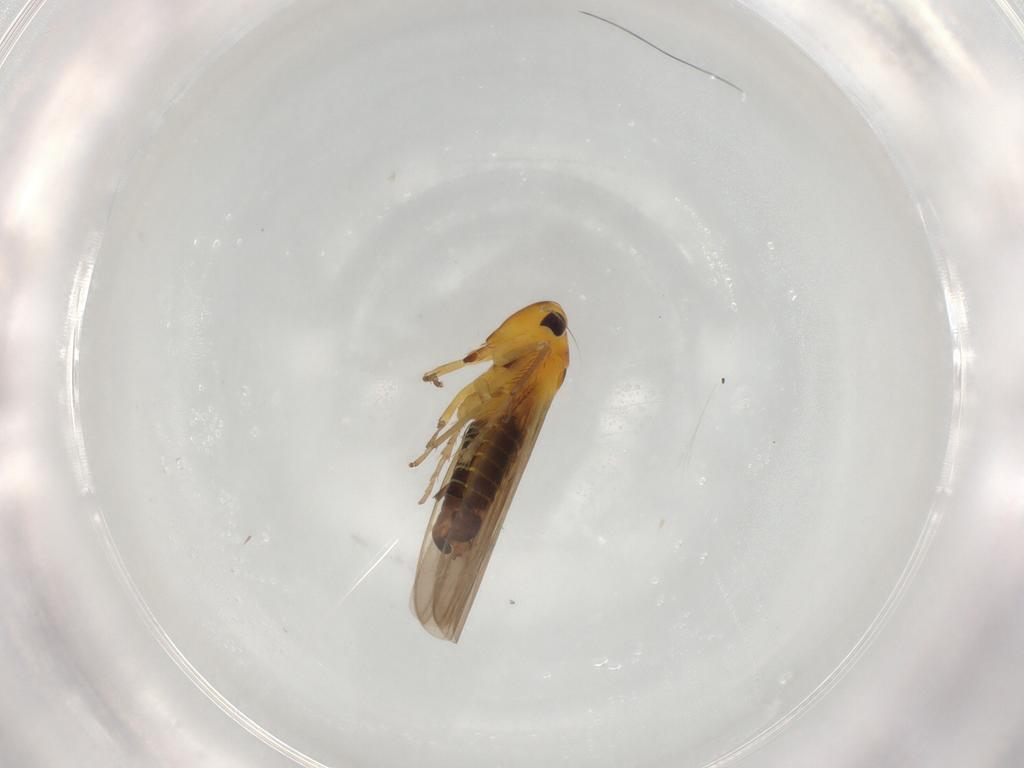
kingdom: Animalia
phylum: Arthropoda
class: Insecta
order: Hemiptera
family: Cicadellidae
